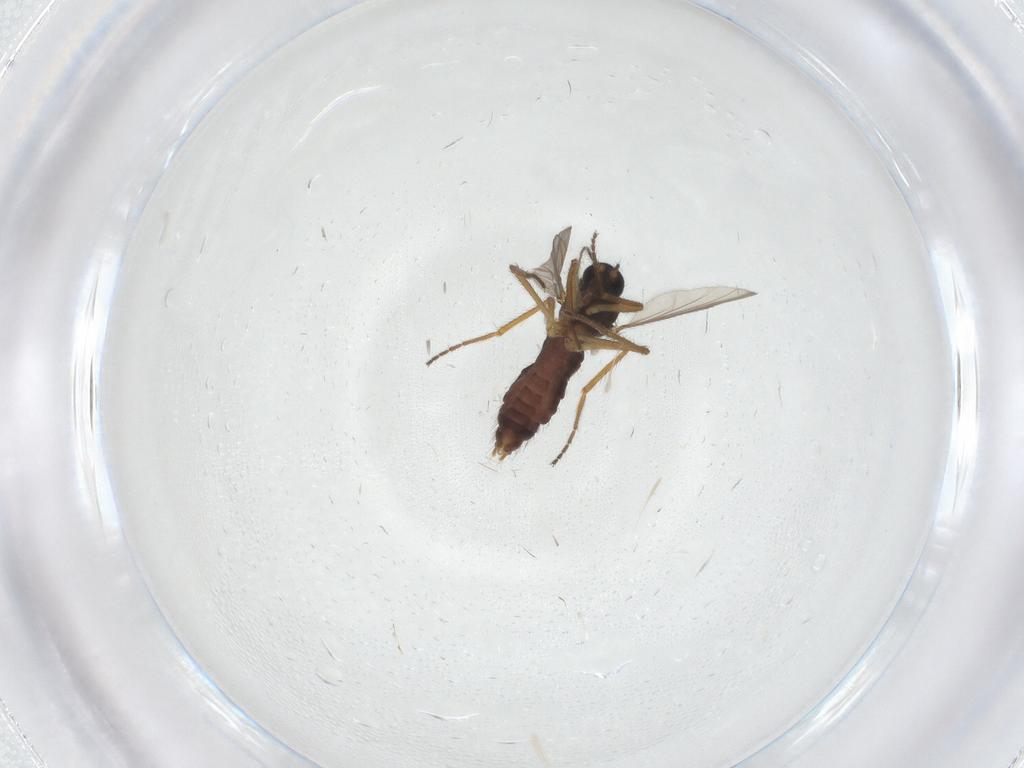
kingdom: Animalia
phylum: Arthropoda
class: Insecta
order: Diptera
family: Ceratopogonidae
